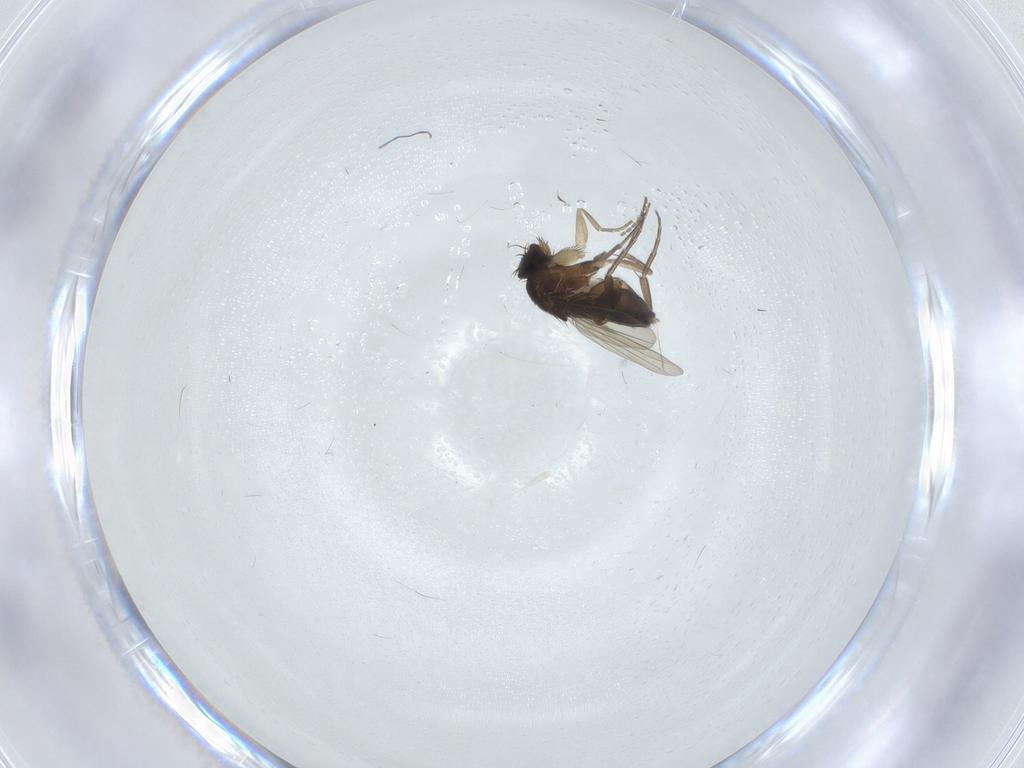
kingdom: Animalia
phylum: Arthropoda
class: Insecta
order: Diptera
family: Phoridae
